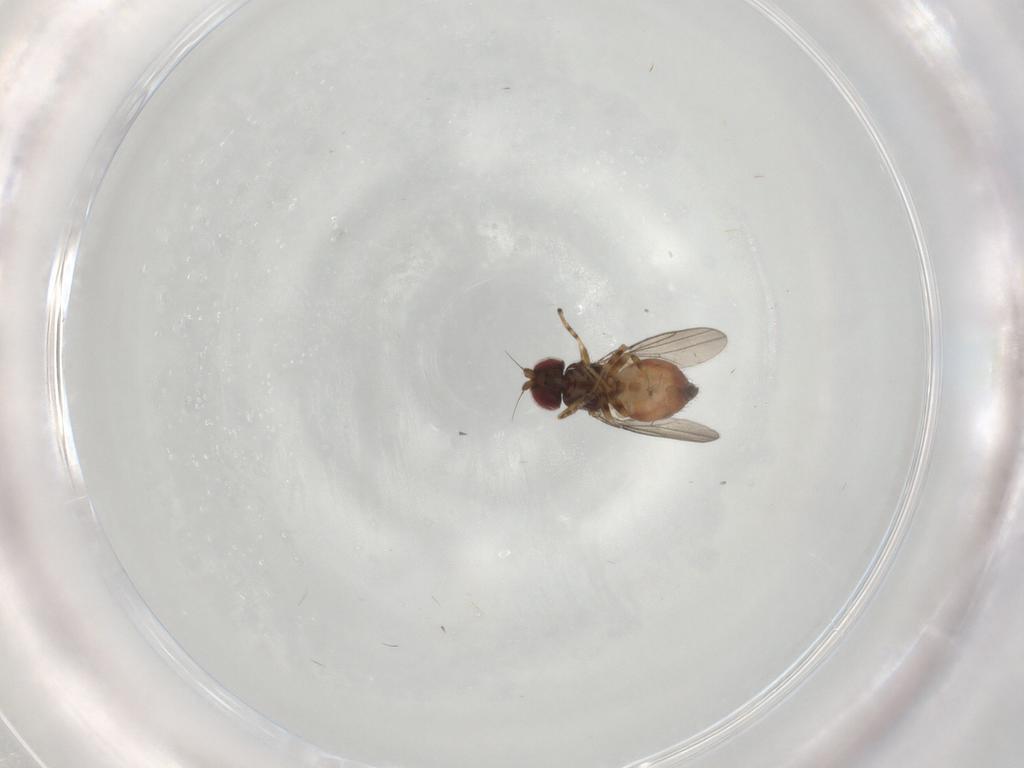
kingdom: Animalia
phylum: Arthropoda
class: Insecta
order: Diptera
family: Chloropidae
